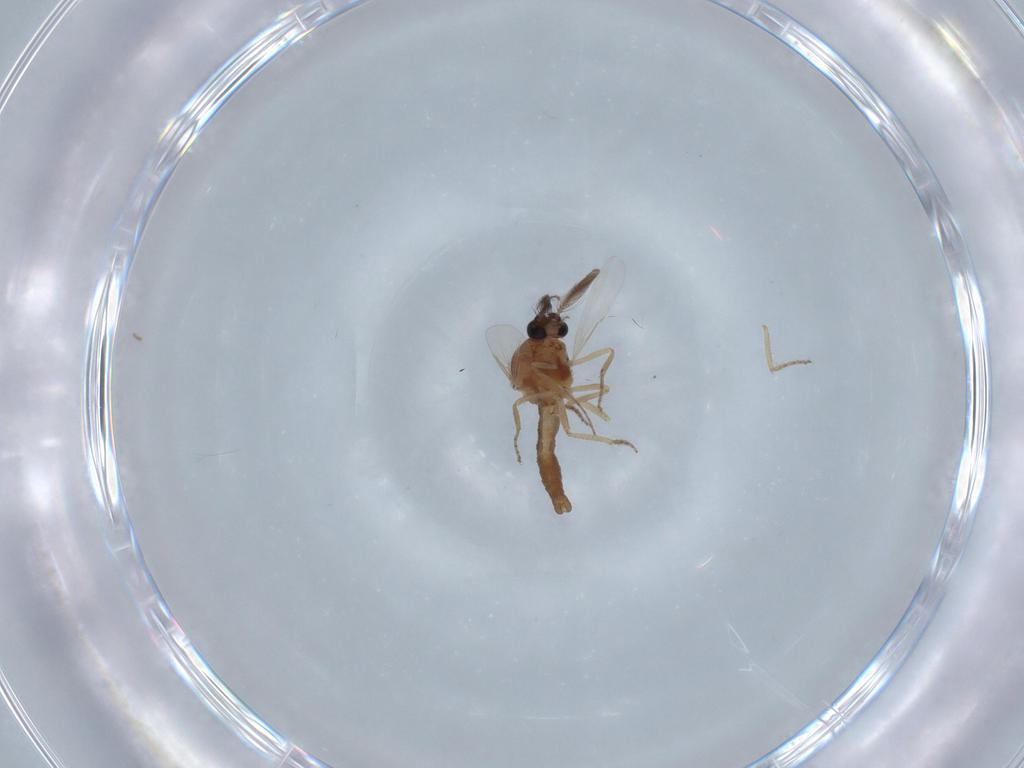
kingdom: Animalia
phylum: Arthropoda
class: Insecta
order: Diptera
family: Ceratopogonidae
